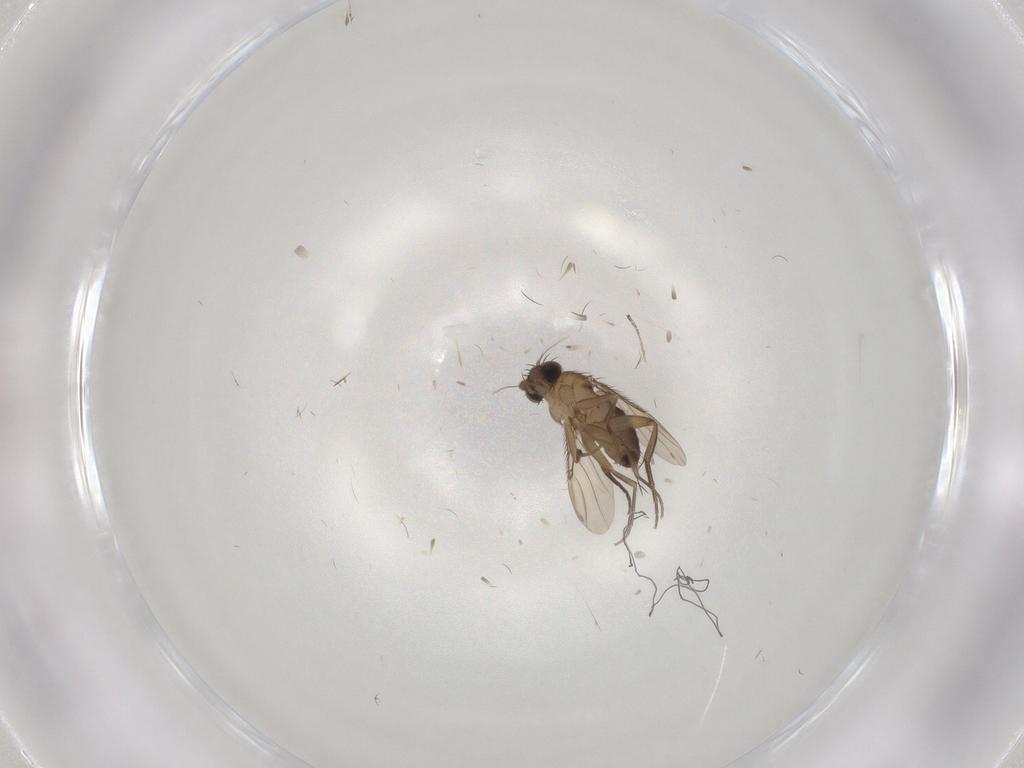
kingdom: Animalia
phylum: Arthropoda
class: Insecta
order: Diptera
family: Phoridae
